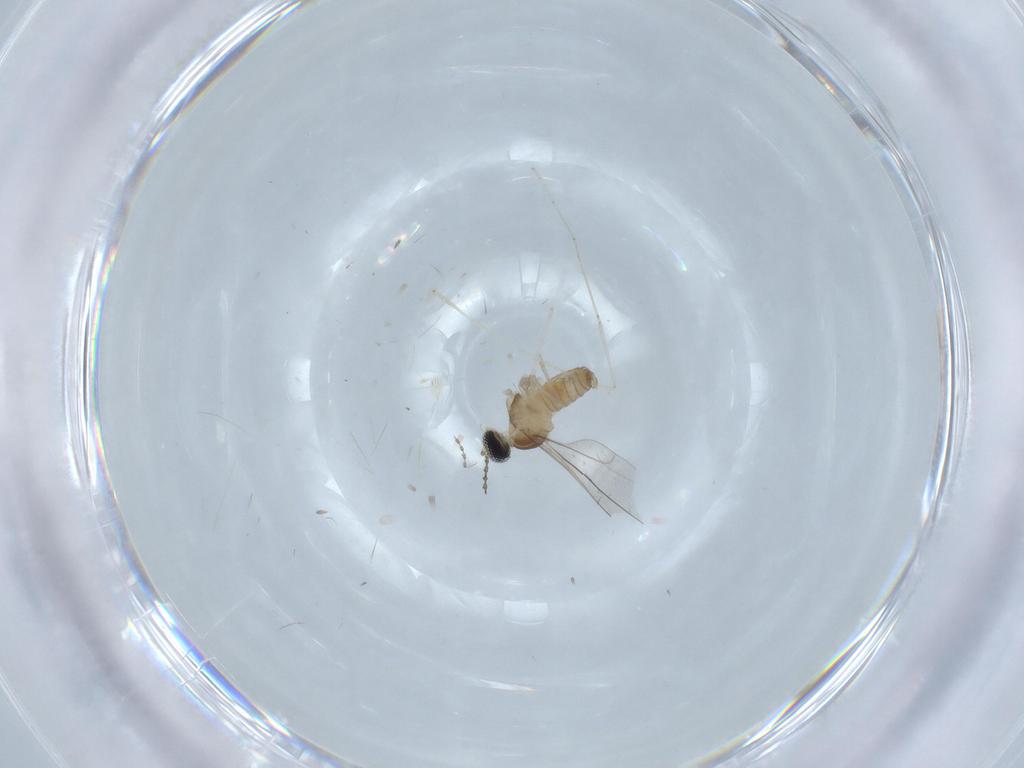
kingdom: Animalia
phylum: Arthropoda
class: Insecta
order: Diptera
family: Cecidomyiidae
